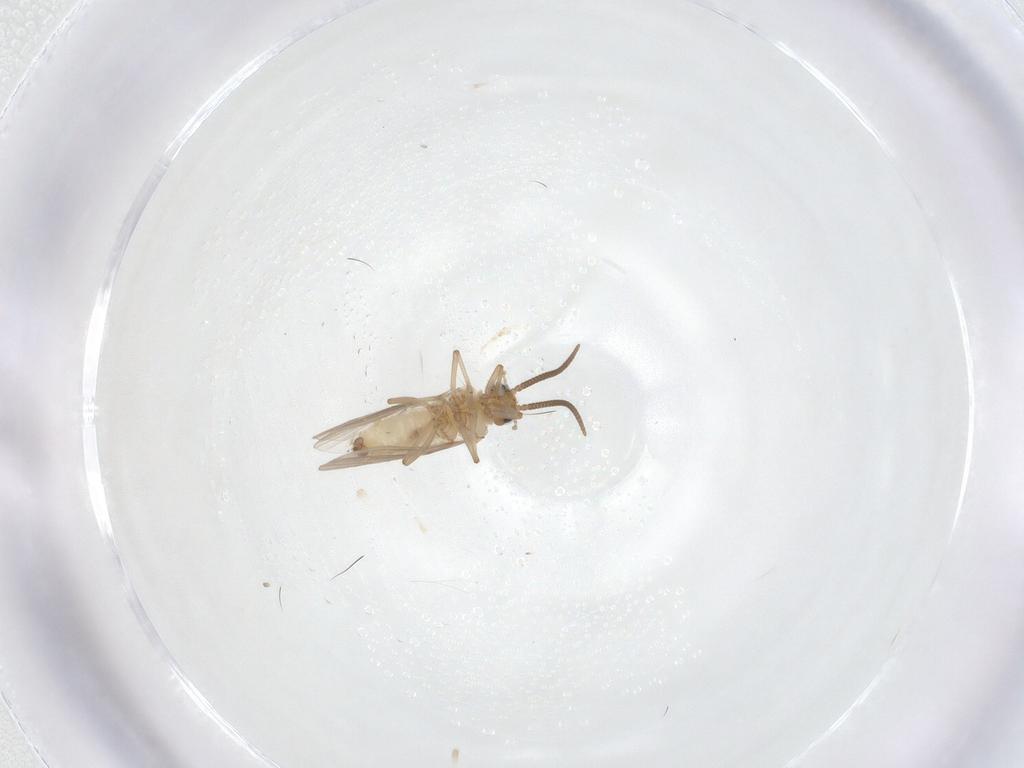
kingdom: Animalia
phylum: Arthropoda
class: Insecta
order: Neuroptera
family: Coniopterygidae
